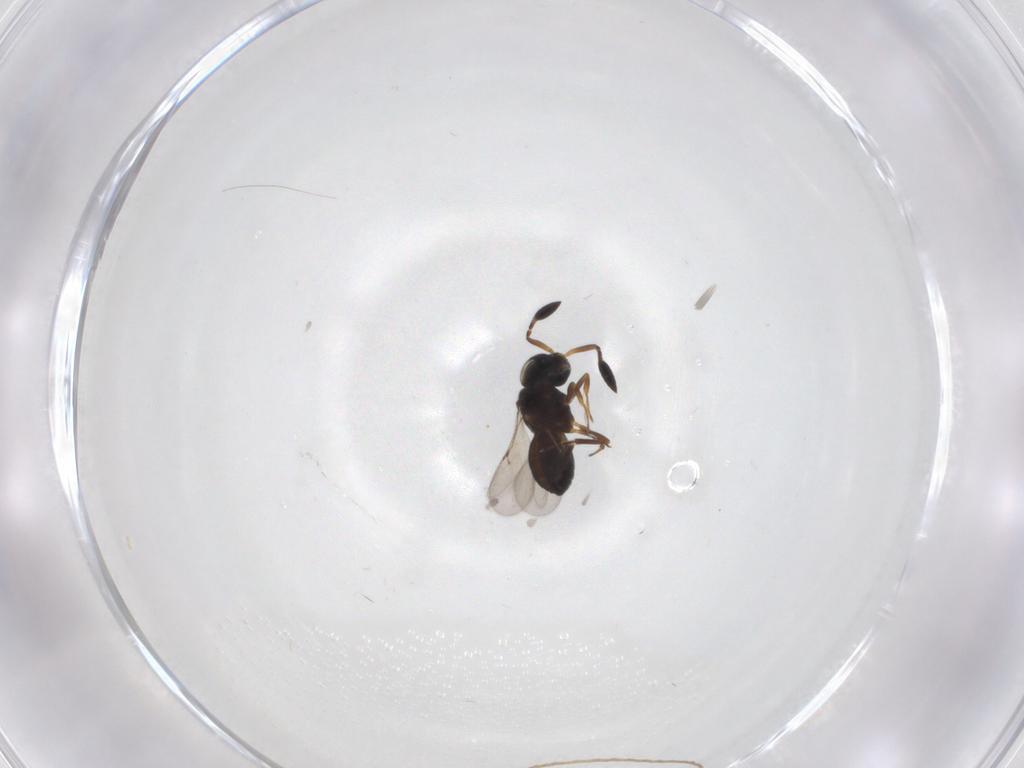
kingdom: Animalia
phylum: Arthropoda
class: Insecta
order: Hymenoptera
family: Scelionidae
